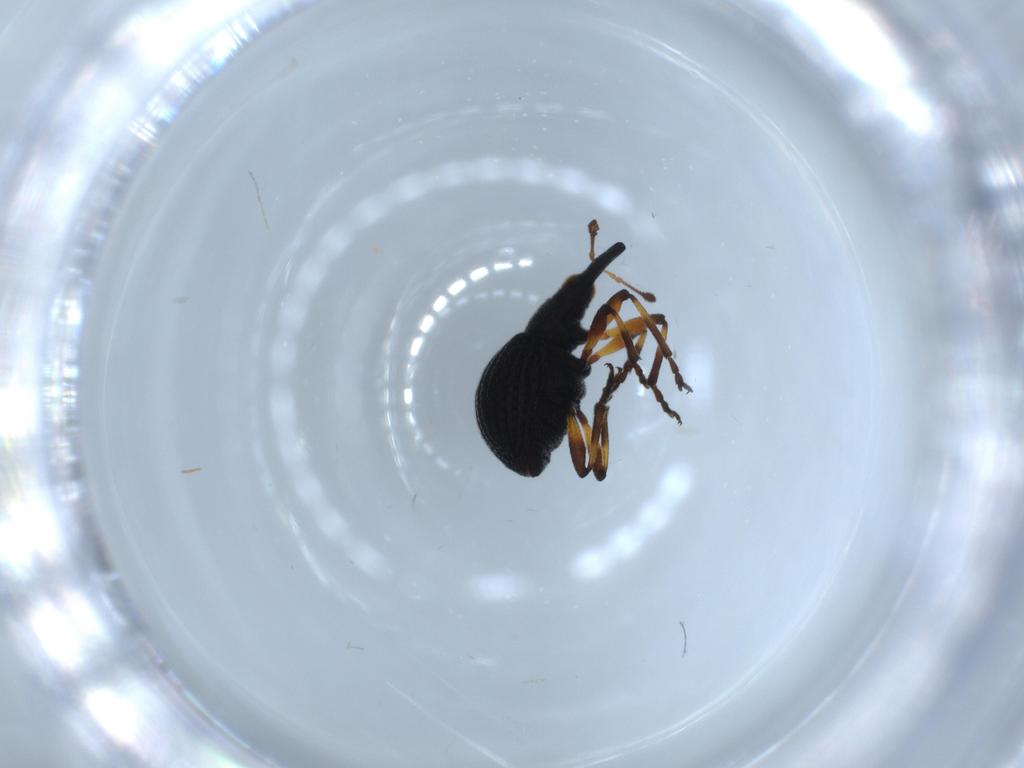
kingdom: Animalia
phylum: Arthropoda
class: Insecta
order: Coleoptera
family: Brentidae
